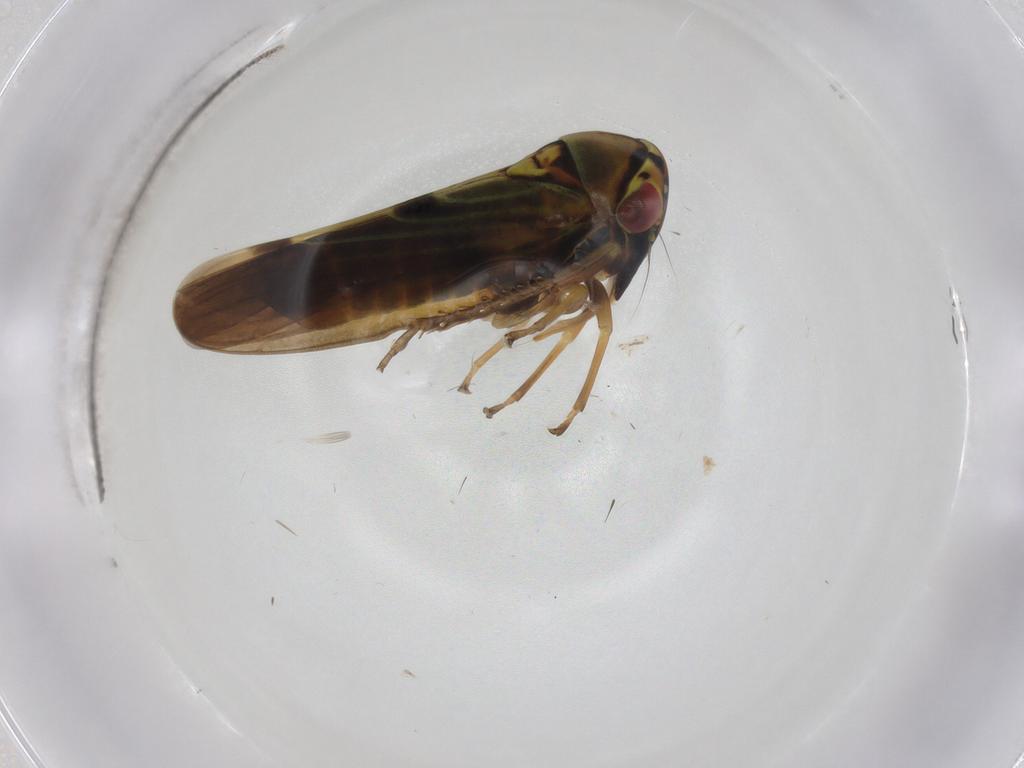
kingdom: Animalia
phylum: Arthropoda
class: Insecta
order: Hemiptera
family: Cicadellidae
